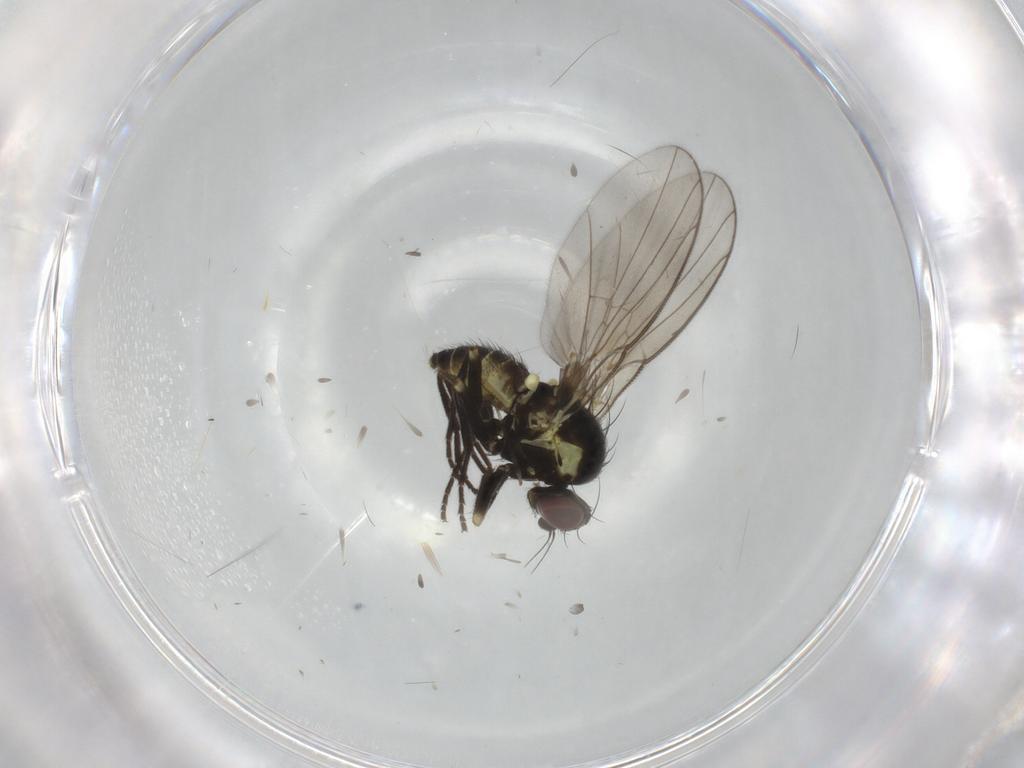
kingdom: Animalia
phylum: Arthropoda
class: Insecta
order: Diptera
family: Agromyzidae
